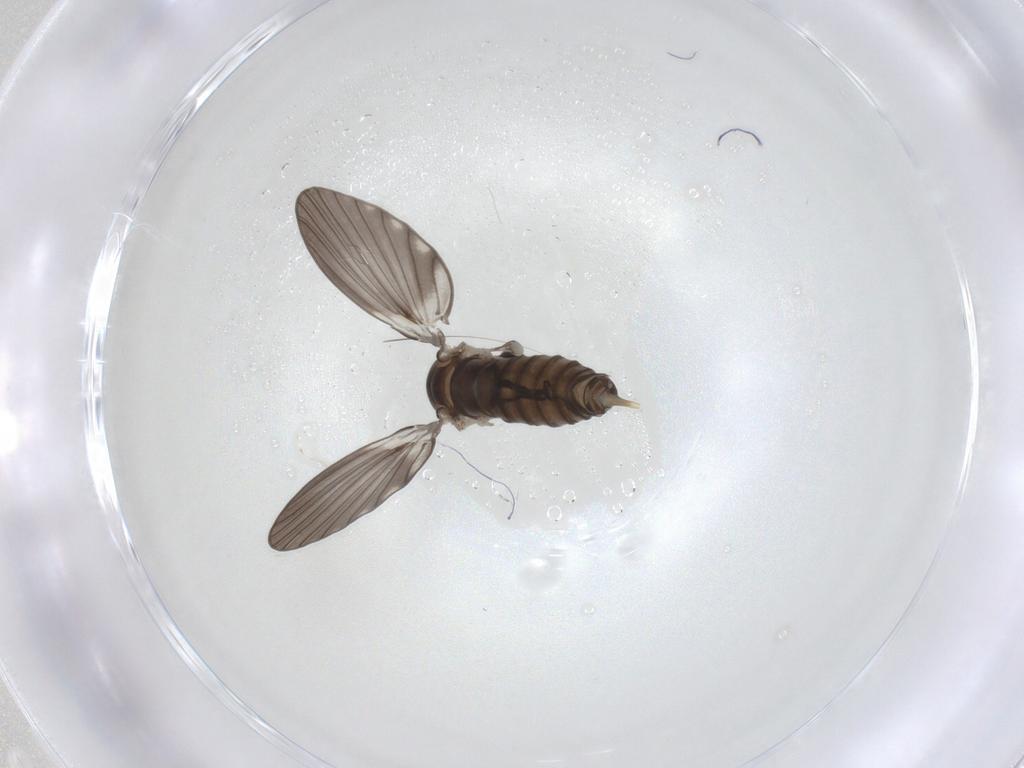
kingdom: Animalia
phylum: Arthropoda
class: Insecta
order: Diptera
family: Sciaridae
